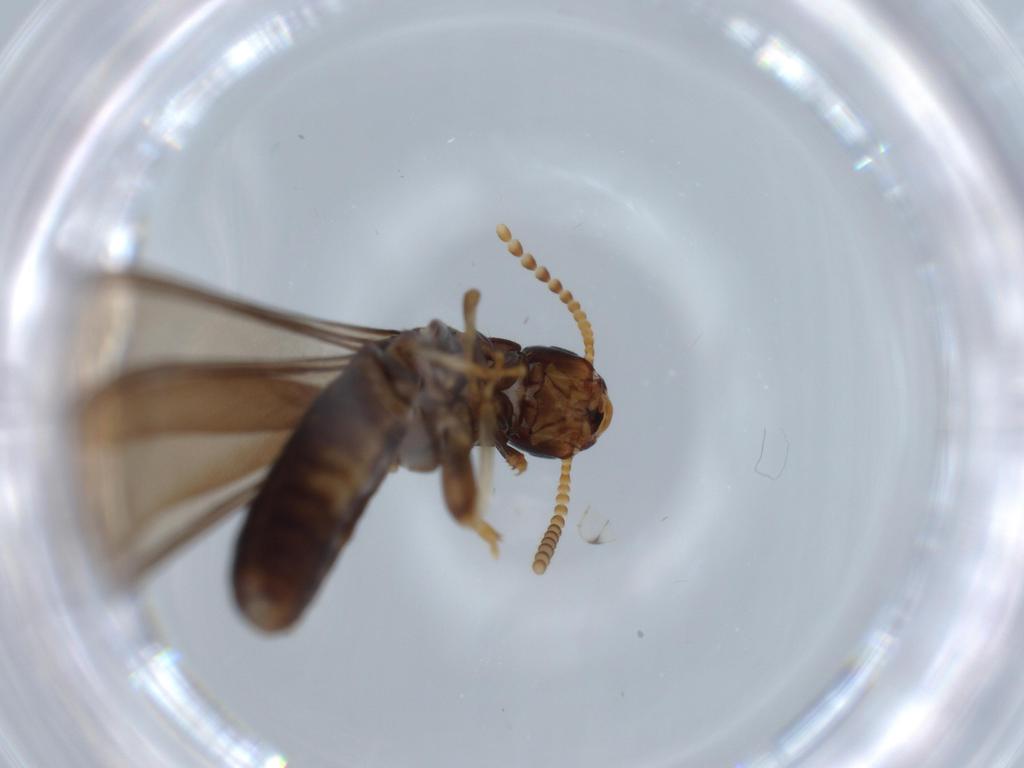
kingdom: Animalia
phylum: Arthropoda
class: Insecta
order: Blattodea
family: Kalotermitidae
